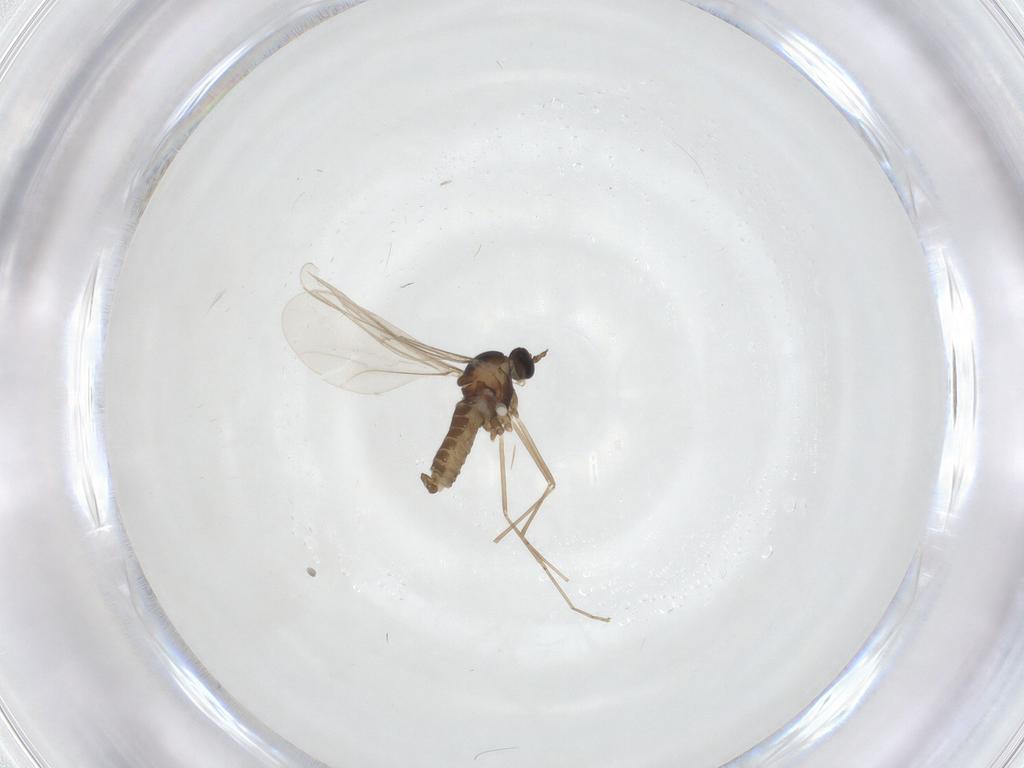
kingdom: Animalia
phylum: Arthropoda
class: Insecta
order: Diptera
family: Cecidomyiidae
